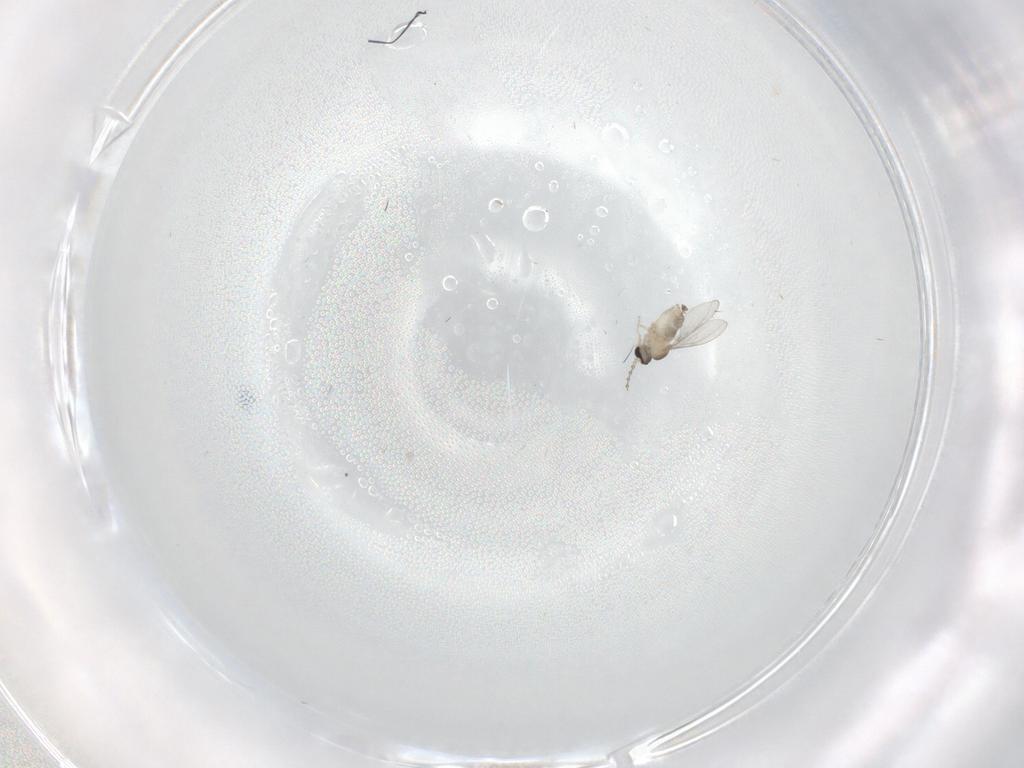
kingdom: Animalia
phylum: Arthropoda
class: Insecta
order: Diptera
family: Cecidomyiidae
